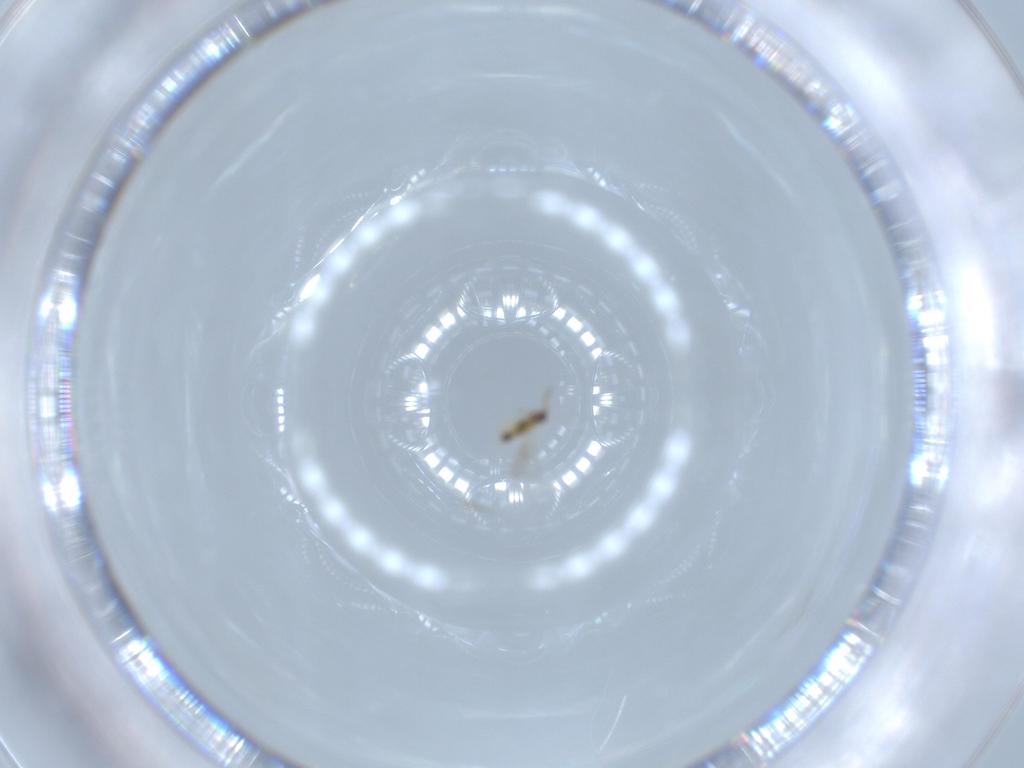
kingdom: Animalia
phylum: Arthropoda
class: Insecta
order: Hymenoptera
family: Aphelinidae
